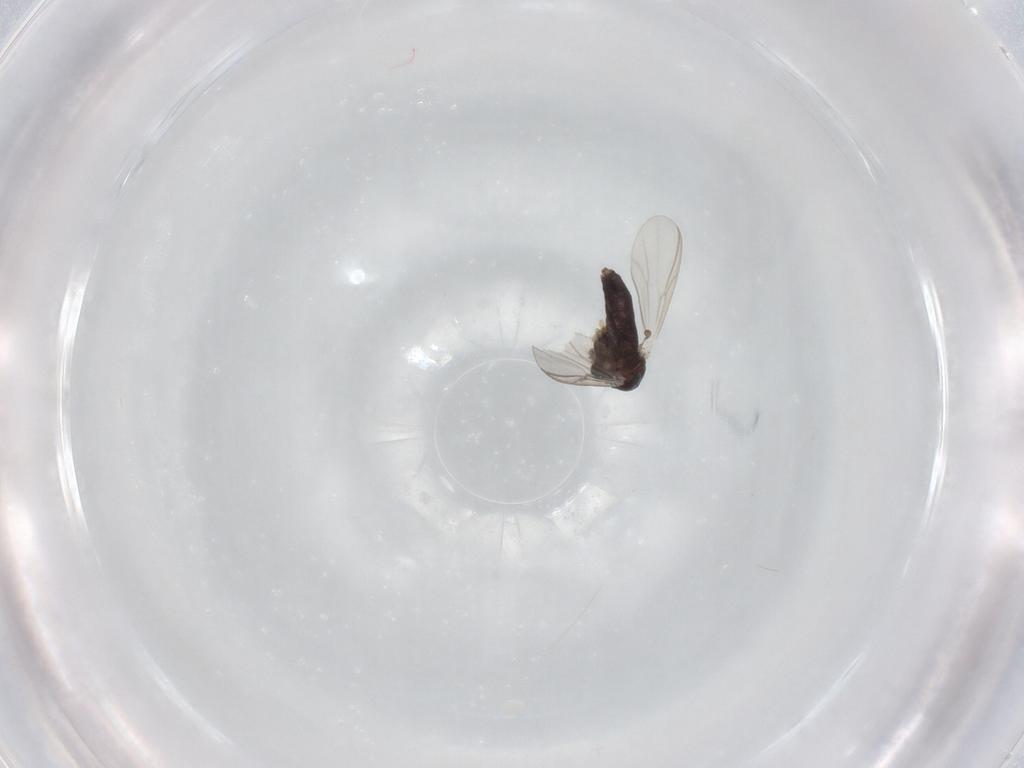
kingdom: Animalia
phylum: Arthropoda
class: Insecta
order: Diptera
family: Chironomidae
